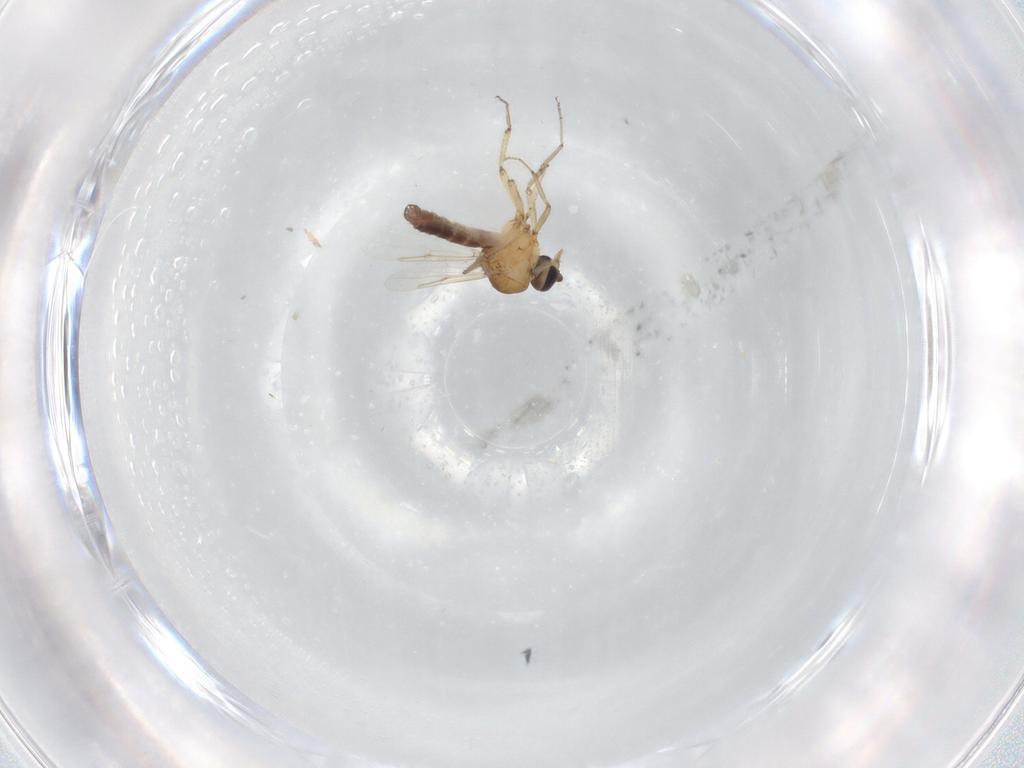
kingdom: Animalia
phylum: Arthropoda
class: Insecta
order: Diptera
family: Ceratopogonidae
